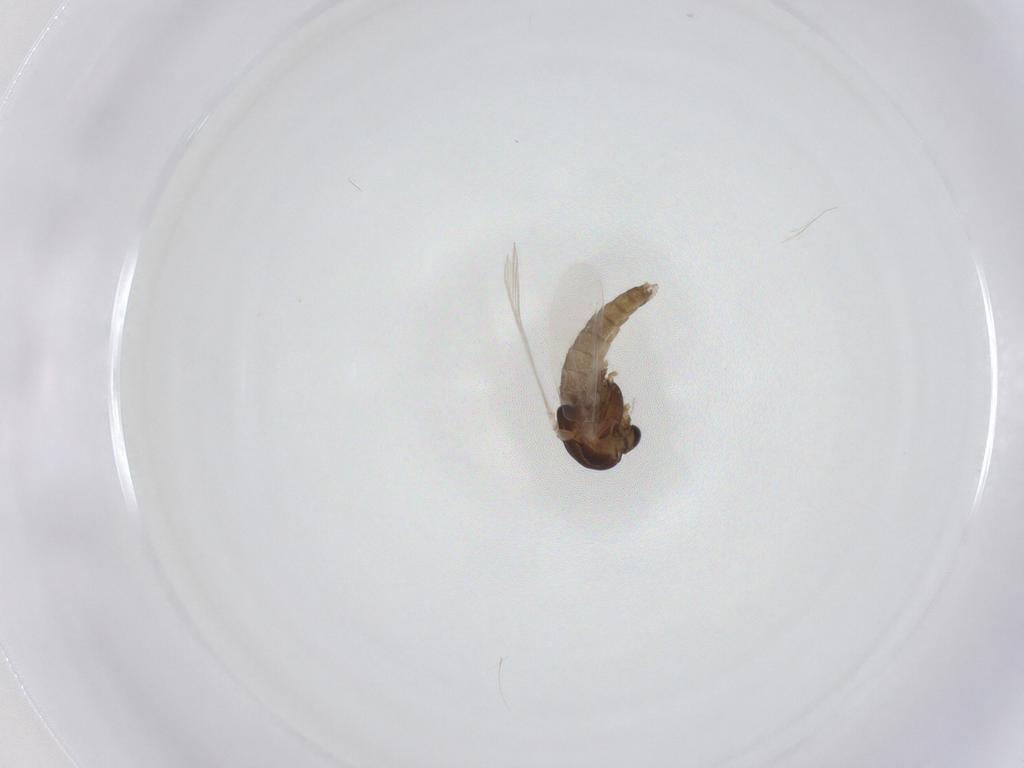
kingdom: Animalia
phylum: Arthropoda
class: Insecta
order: Diptera
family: Chironomidae
